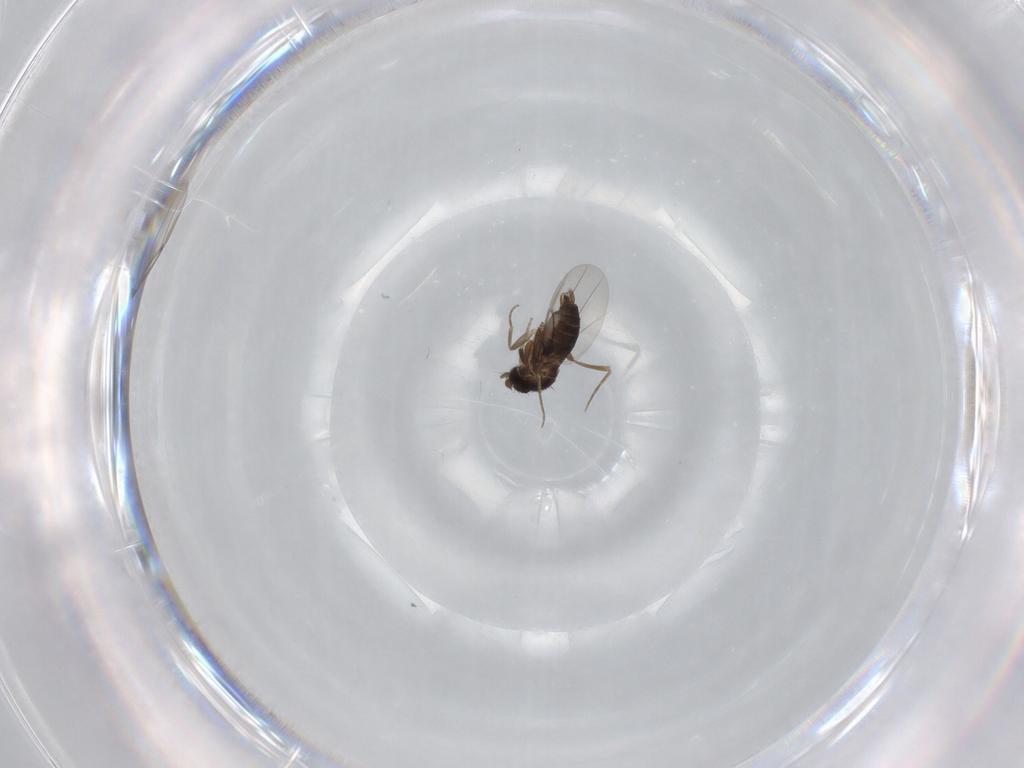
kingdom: Animalia
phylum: Arthropoda
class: Insecta
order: Diptera
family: Phoridae
